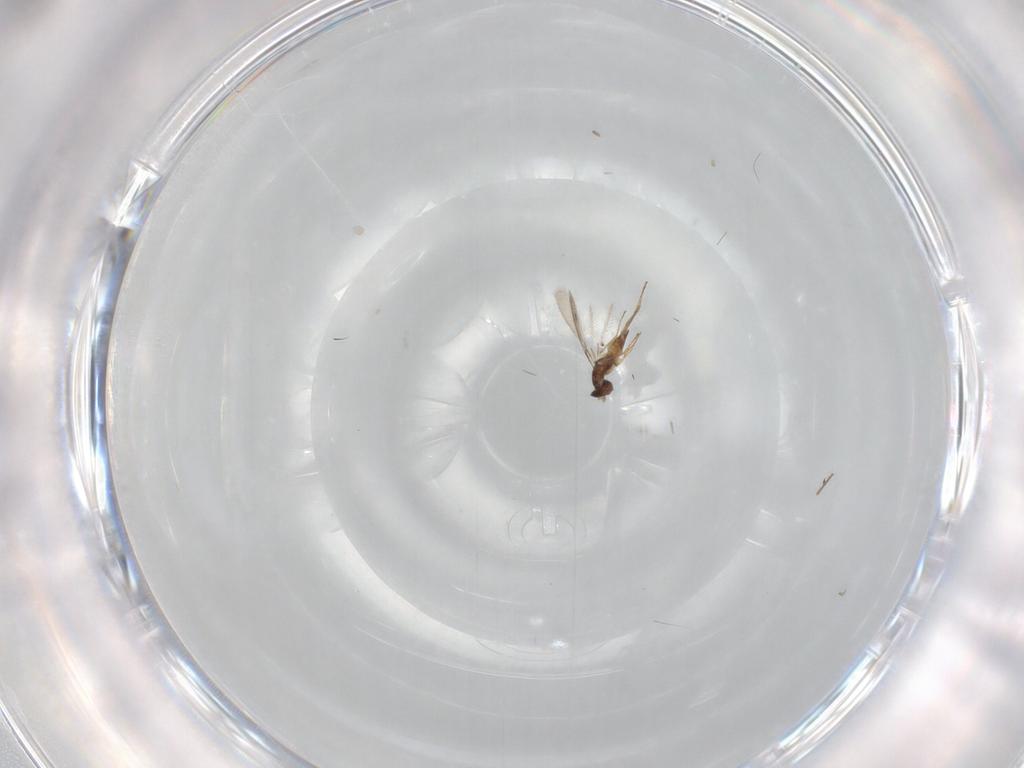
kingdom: Animalia
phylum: Arthropoda
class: Insecta
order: Hymenoptera
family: Mymaridae
